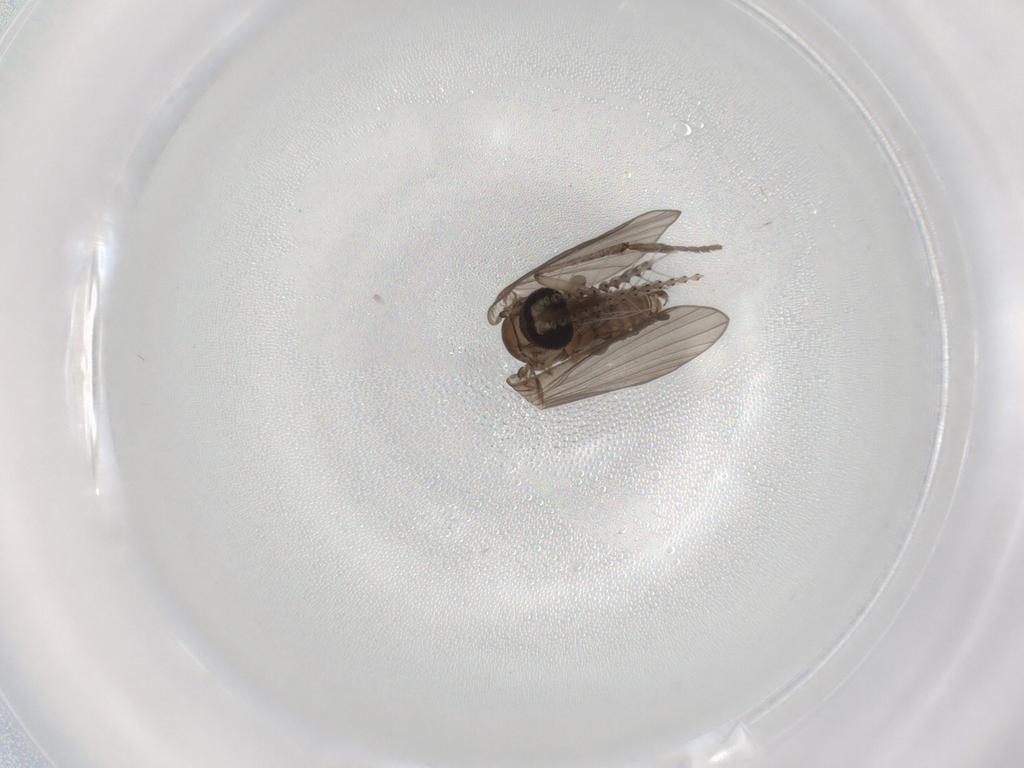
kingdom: Animalia
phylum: Arthropoda
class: Insecta
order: Diptera
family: Psychodidae
